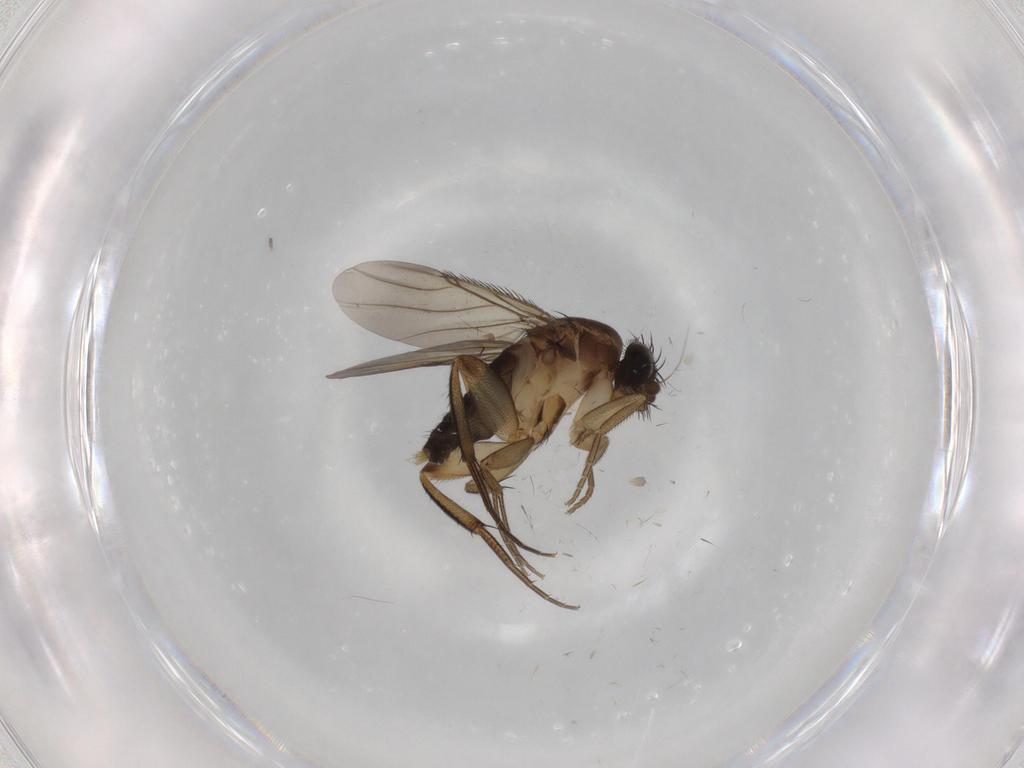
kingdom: Animalia
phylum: Arthropoda
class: Insecta
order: Diptera
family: Phoridae
